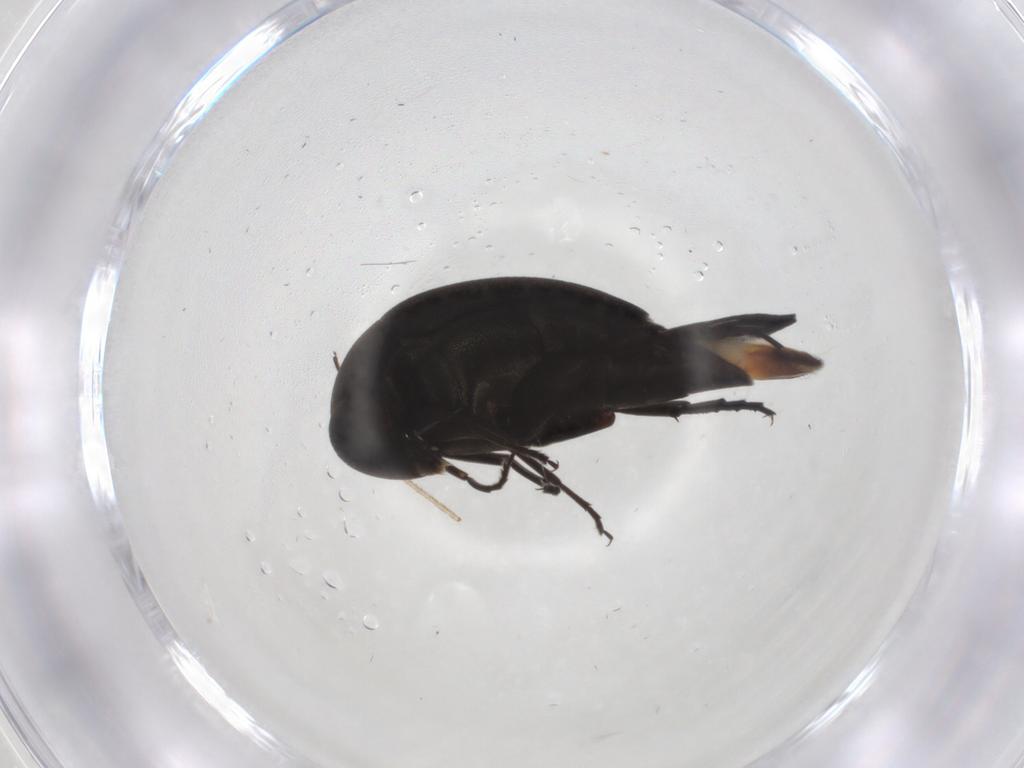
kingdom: Animalia
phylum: Arthropoda
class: Insecta
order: Coleoptera
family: Mordellidae
